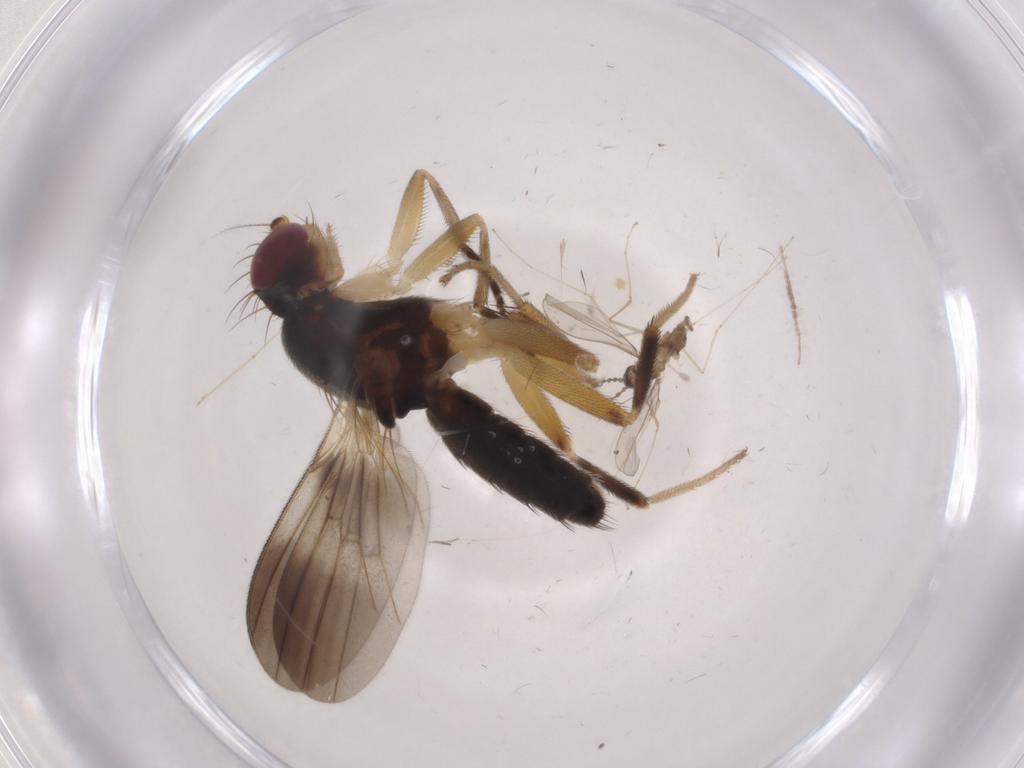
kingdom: Animalia
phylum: Arthropoda
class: Insecta
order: Diptera
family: Clusiidae
